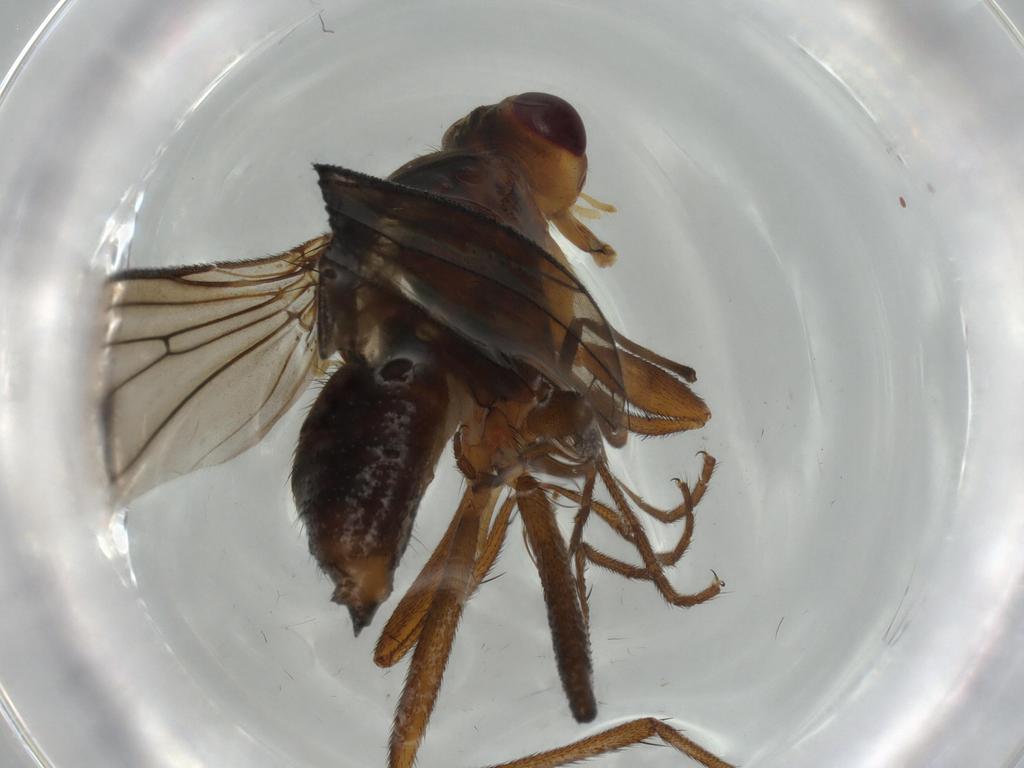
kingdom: Animalia
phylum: Arthropoda
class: Insecta
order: Diptera
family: Scathophagidae
